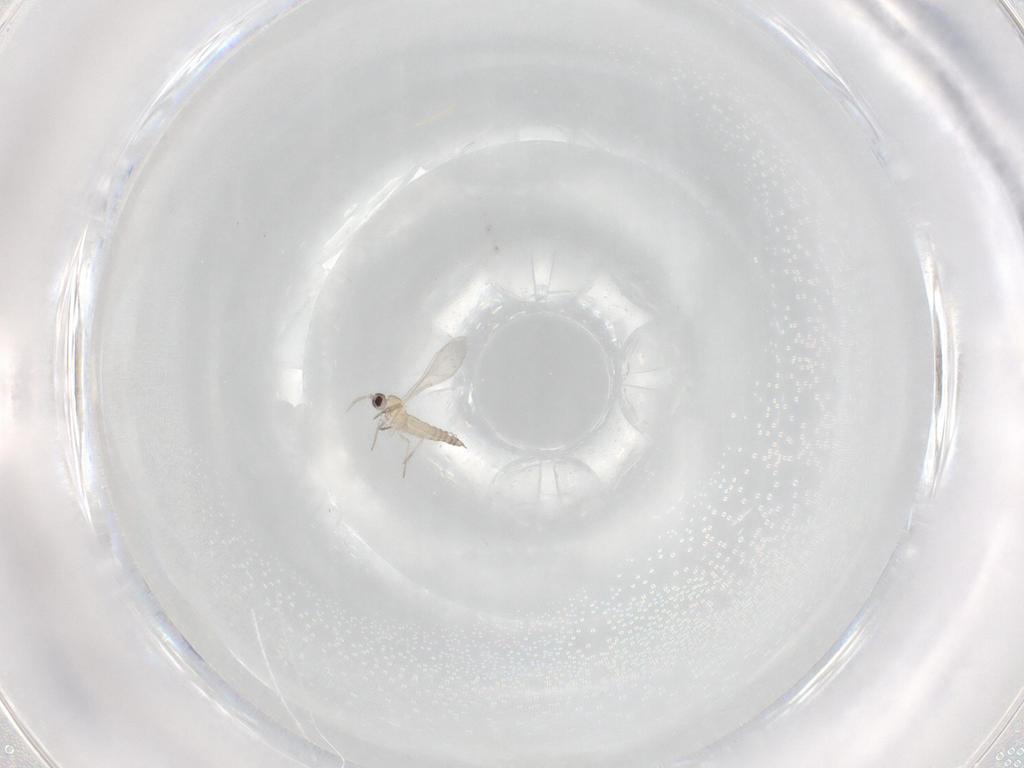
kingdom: Animalia
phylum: Arthropoda
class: Insecta
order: Diptera
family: Cecidomyiidae
